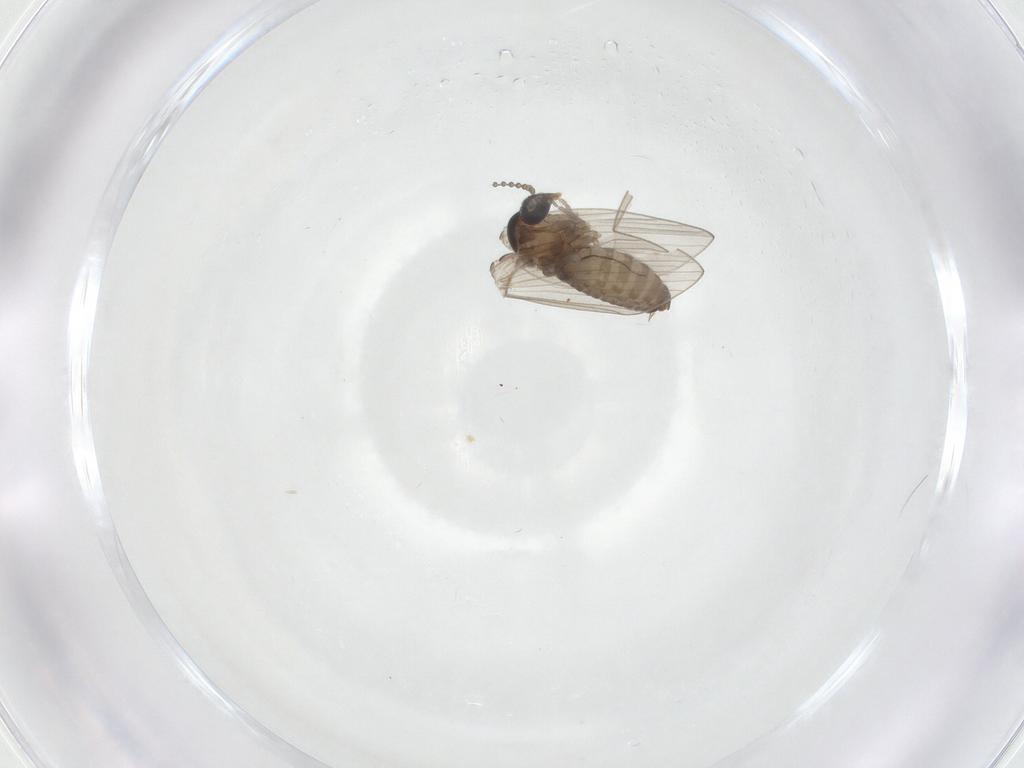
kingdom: Animalia
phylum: Arthropoda
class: Insecta
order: Diptera
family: Psychodidae
